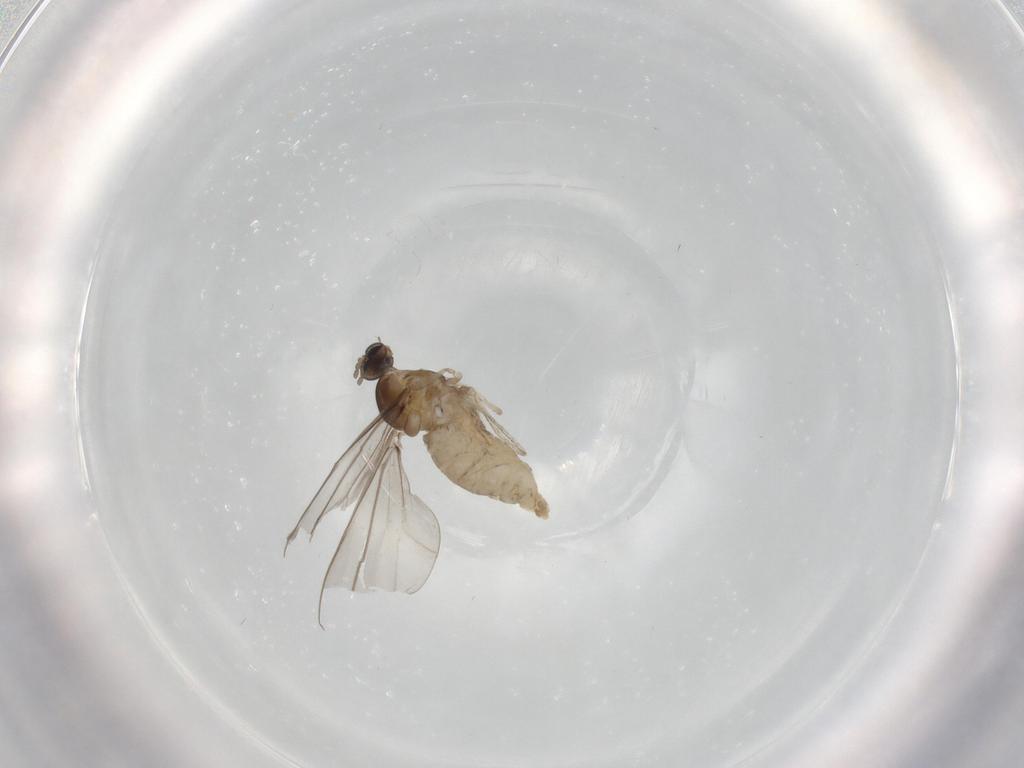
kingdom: Animalia
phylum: Arthropoda
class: Insecta
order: Diptera
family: Cecidomyiidae
